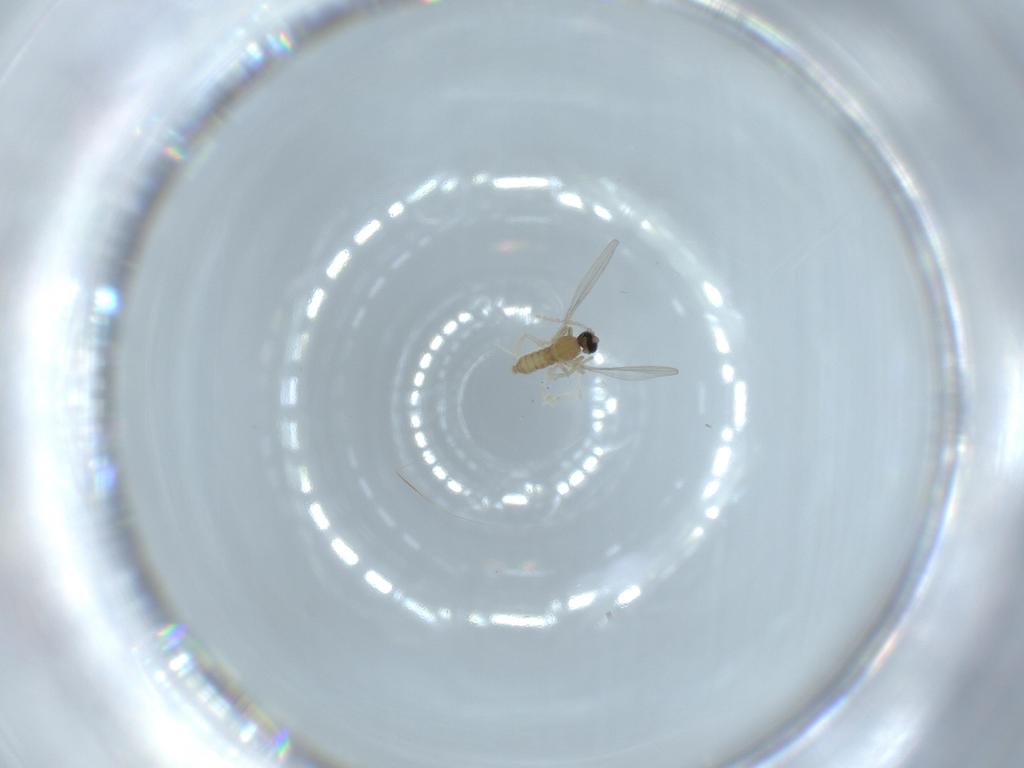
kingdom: Animalia
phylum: Arthropoda
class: Insecta
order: Diptera
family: Cecidomyiidae
